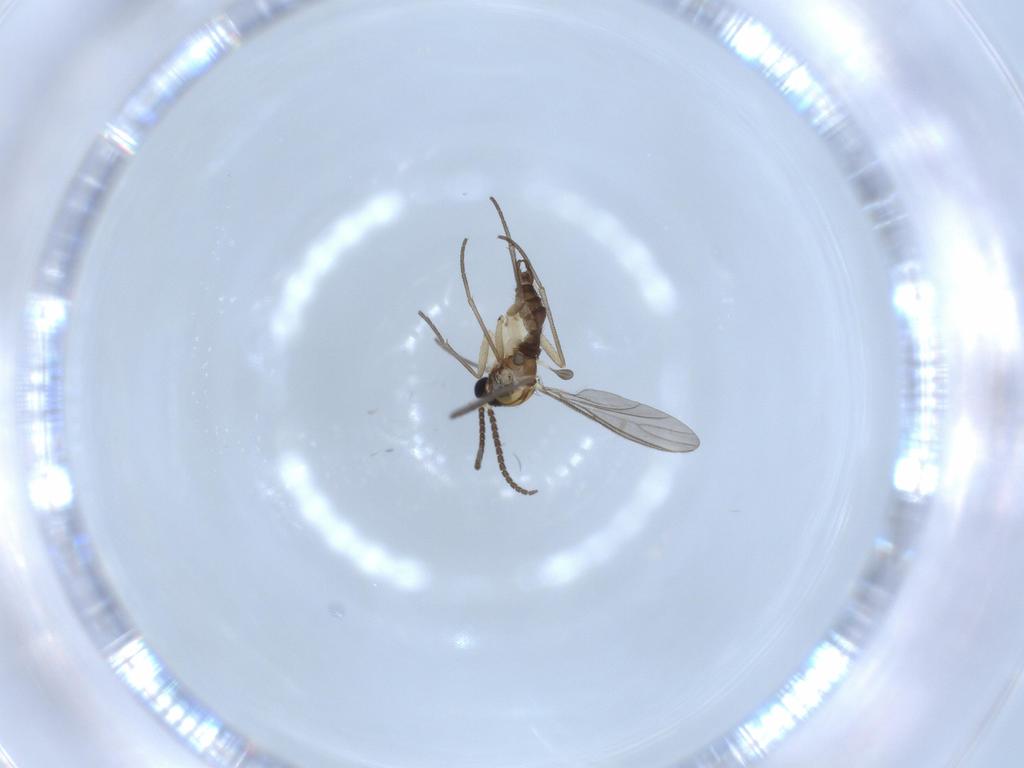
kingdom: Animalia
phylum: Arthropoda
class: Insecta
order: Diptera
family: Sciaridae
